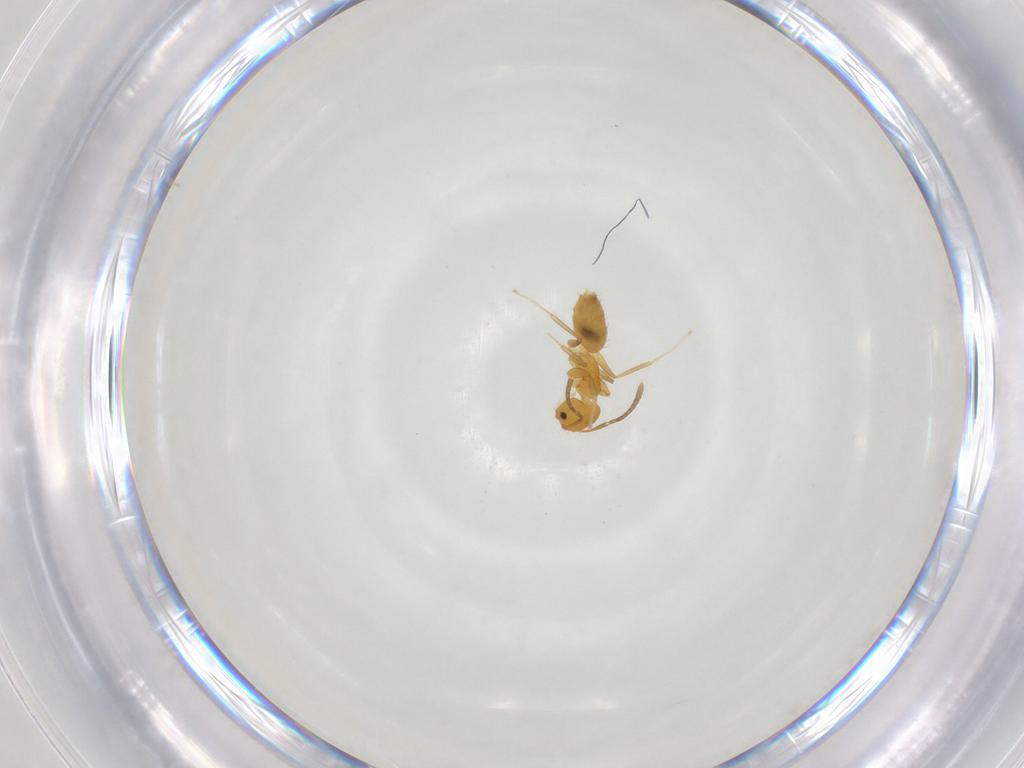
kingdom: Animalia
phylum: Arthropoda
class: Insecta
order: Hymenoptera
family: Formicidae
